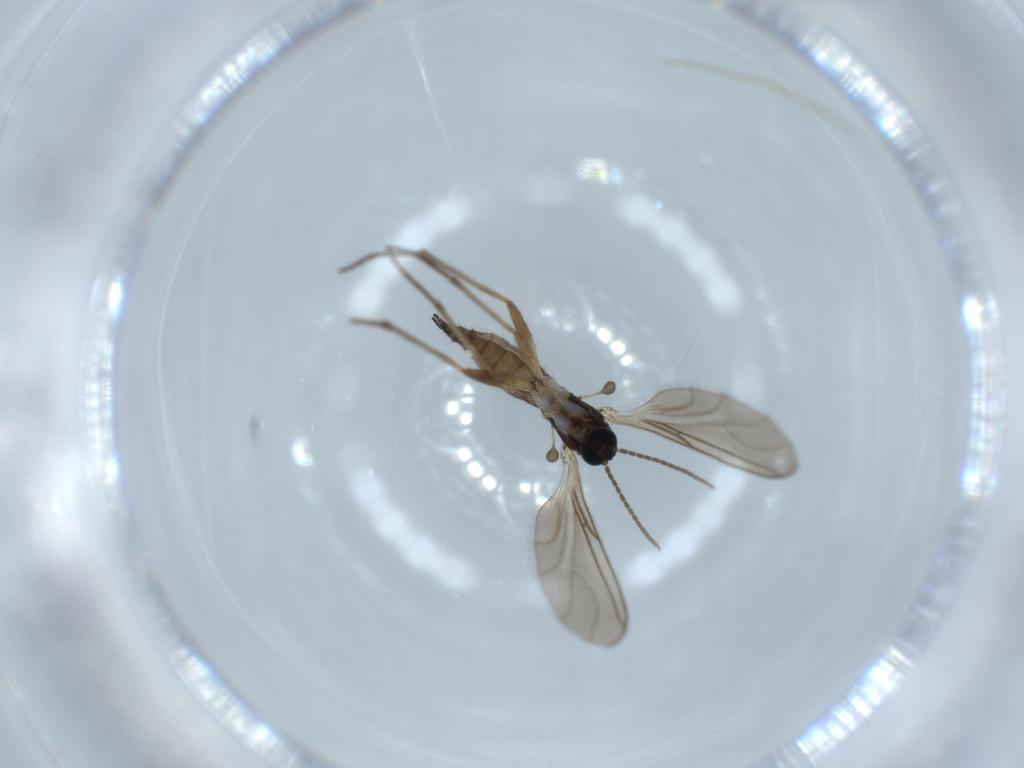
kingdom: Animalia
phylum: Arthropoda
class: Insecta
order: Diptera
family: Sciaridae
